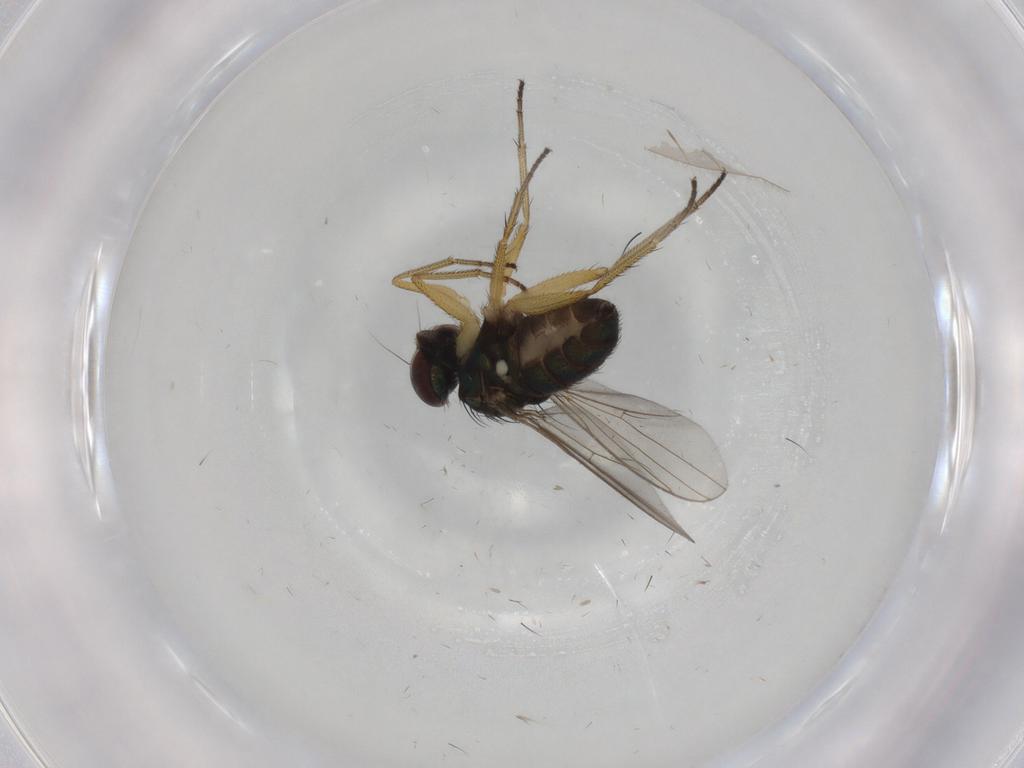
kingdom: Animalia
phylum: Arthropoda
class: Insecta
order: Diptera
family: Dolichopodidae
